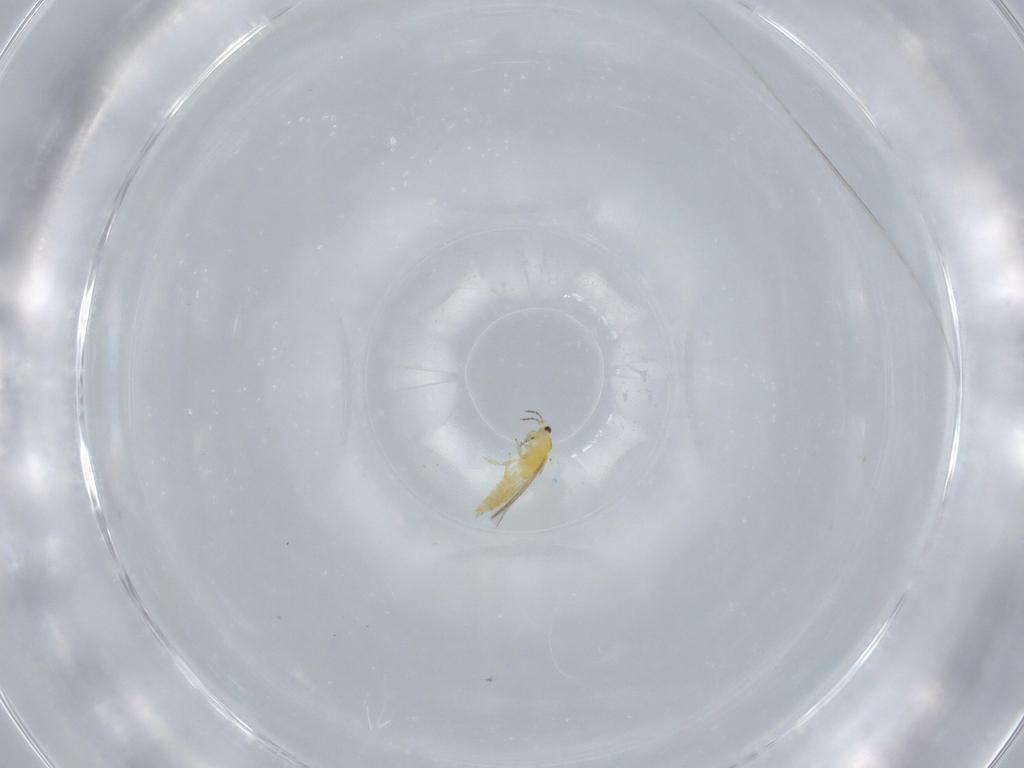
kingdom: Animalia
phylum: Arthropoda
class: Insecta
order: Thysanoptera
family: Thripidae
